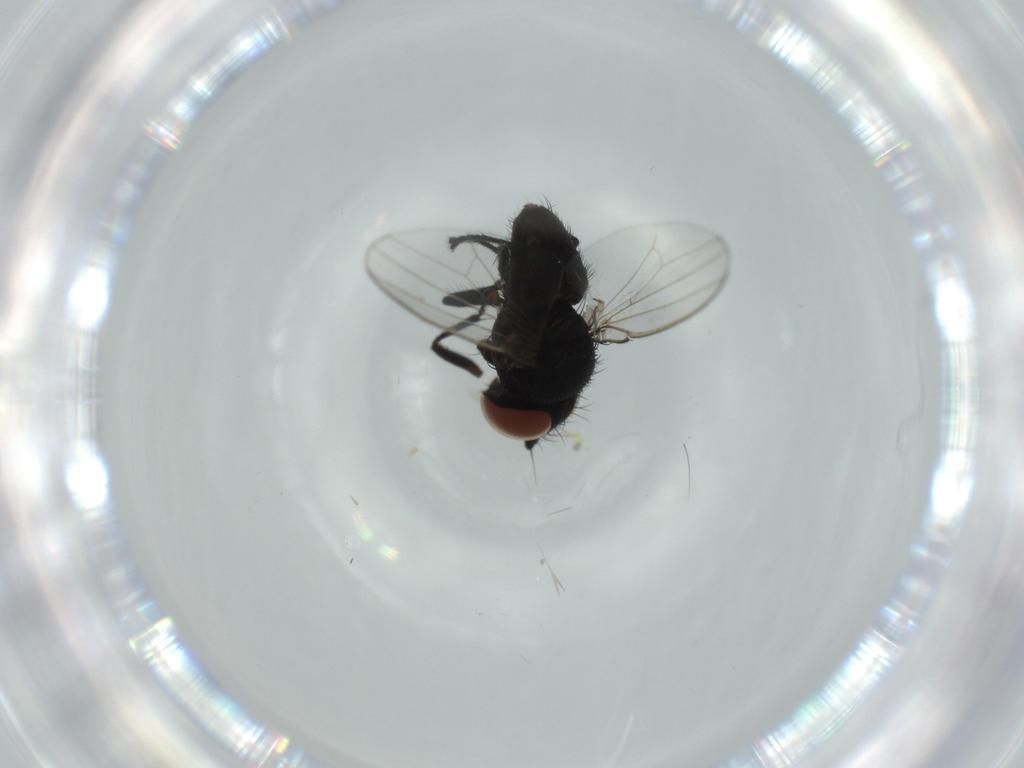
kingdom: Animalia
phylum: Arthropoda
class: Insecta
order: Diptera
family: Milichiidae
